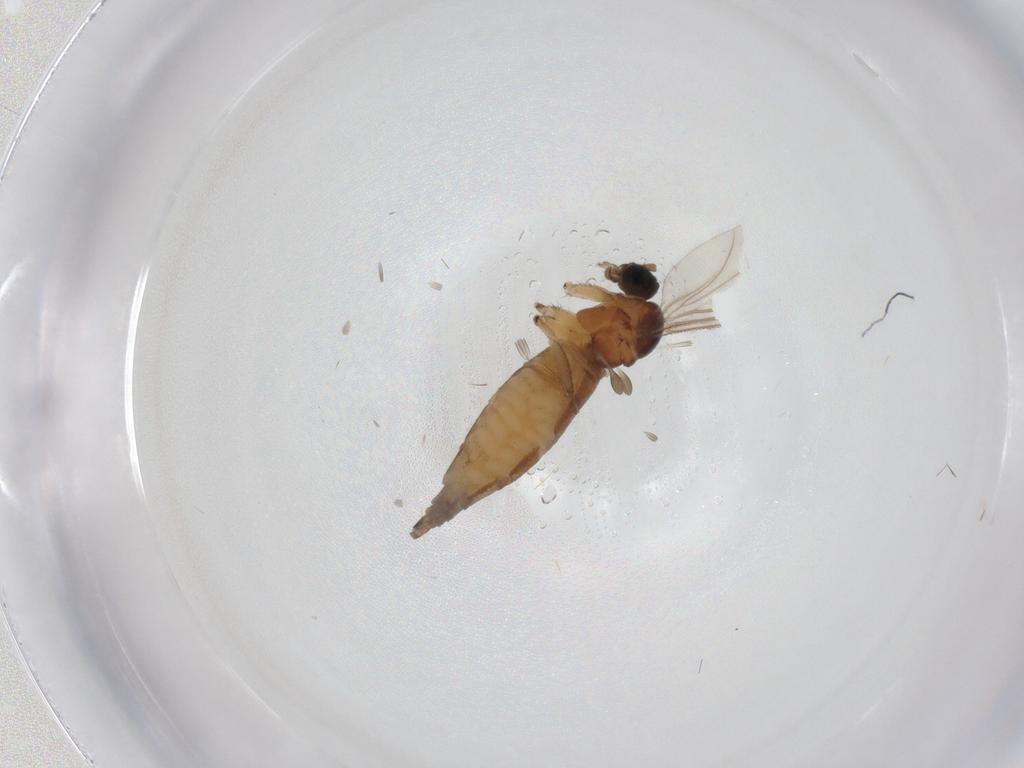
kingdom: Animalia
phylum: Arthropoda
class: Insecta
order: Diptera
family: Sciaridae
